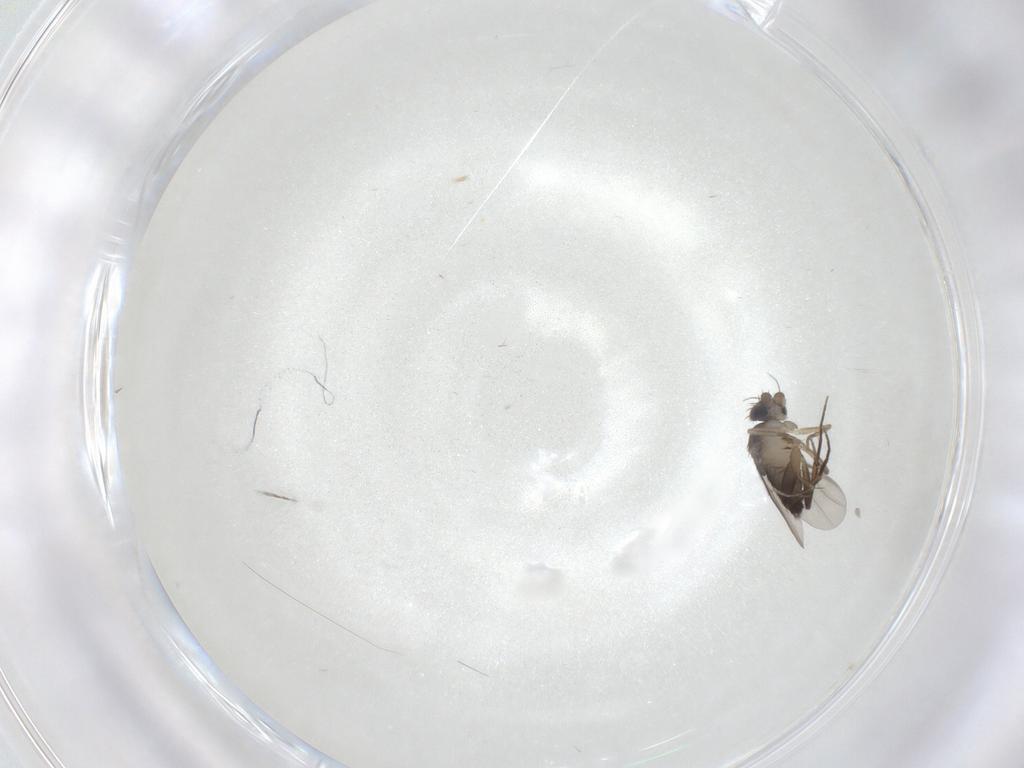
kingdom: Animalia
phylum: Arthropoda
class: Insecta
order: Diptera
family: Phoridae
